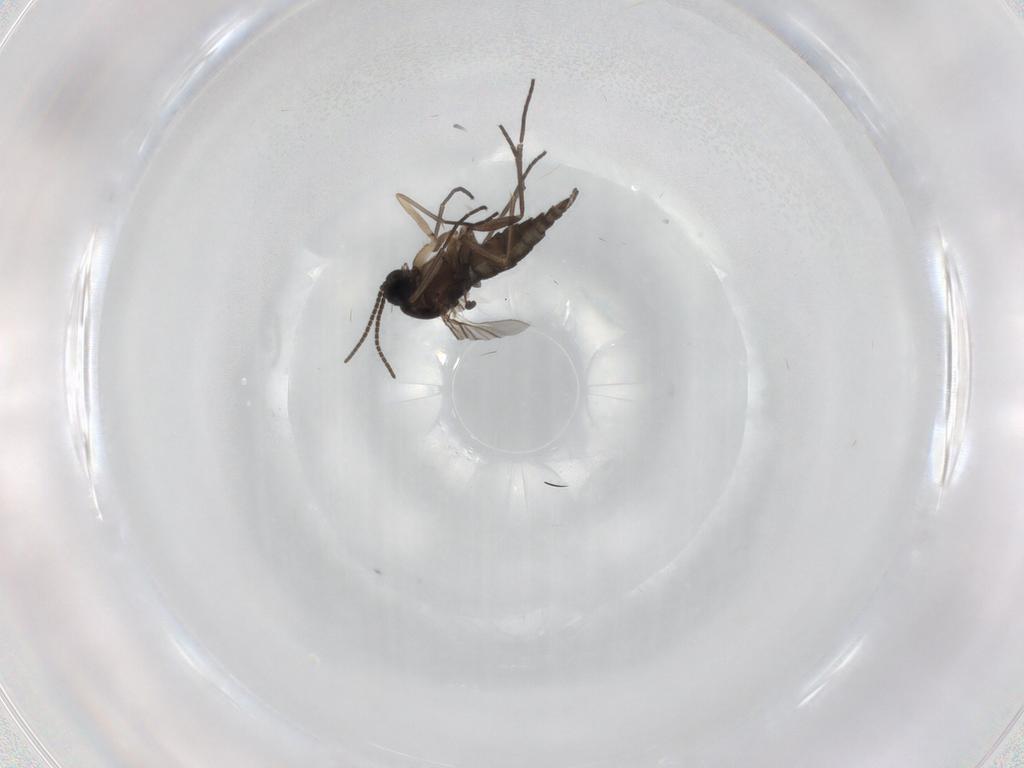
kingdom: Animalia
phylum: Arthropoda
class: Insecta
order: Diptera
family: Sciaridae
